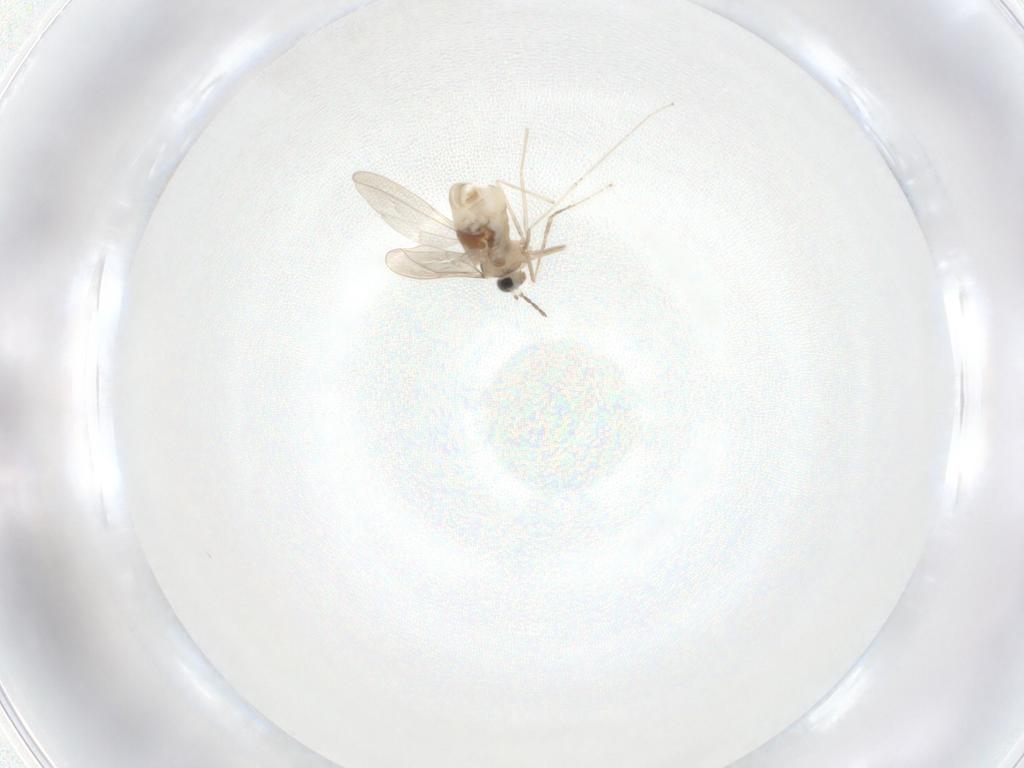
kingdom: Animalia
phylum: Arthropoda
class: Insecta
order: Diptera
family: Cecidomyiidae
